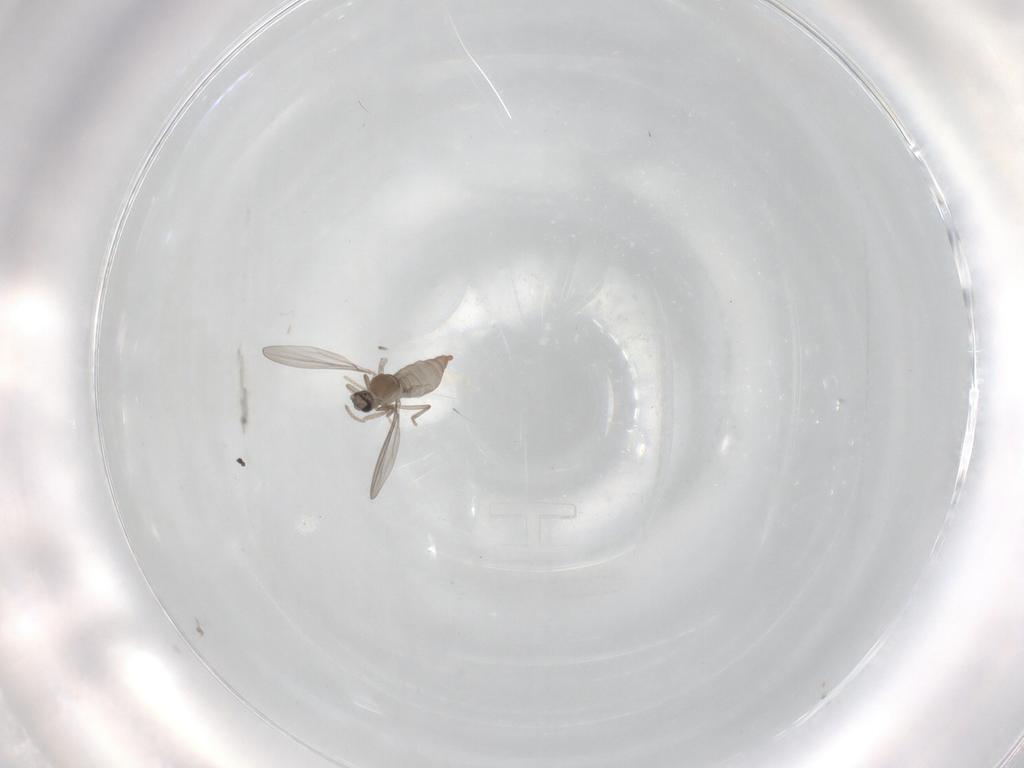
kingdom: Animalia
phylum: Arthropoda
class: Insecta
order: Diptera
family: Cecidomyiidae
